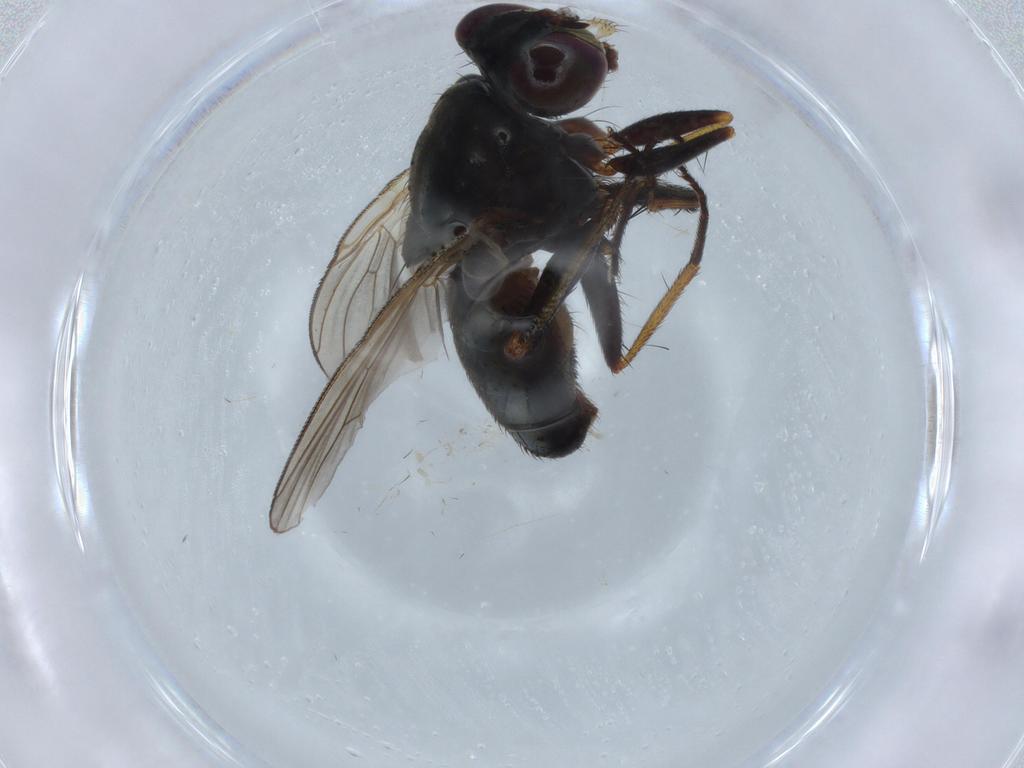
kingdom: Animalia
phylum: Arthropoda
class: Insecta
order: Diptera
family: Muscidae
